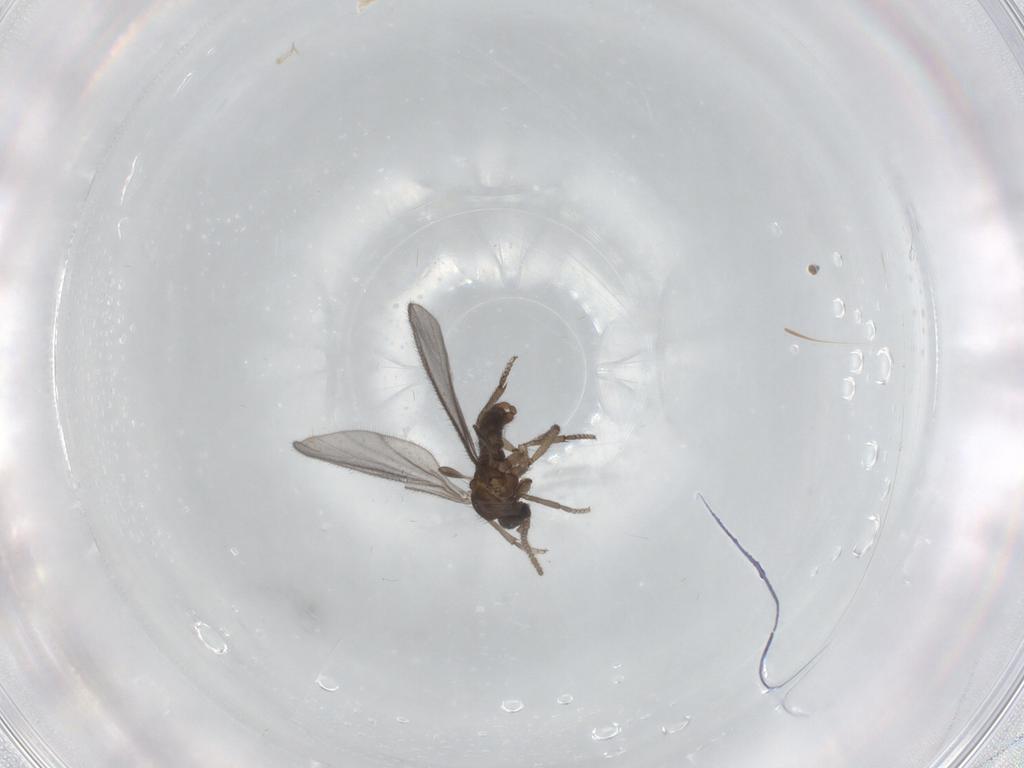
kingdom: Animalia
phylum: Arthropoda
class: Insecta
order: Diptera
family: Sciaridae
